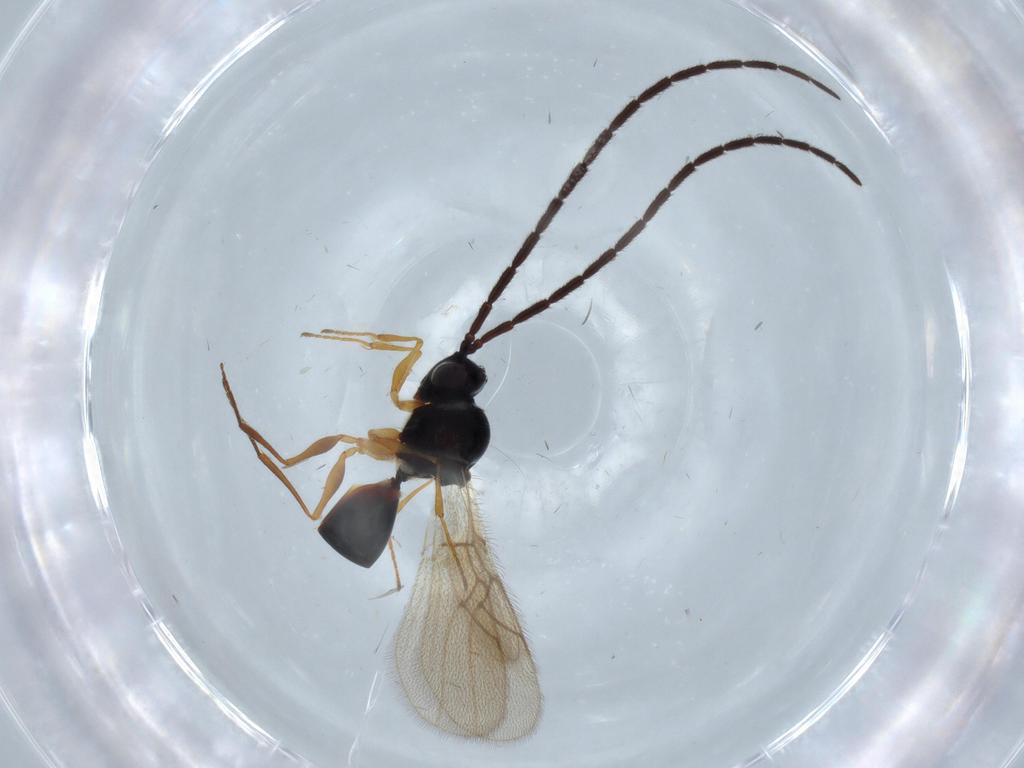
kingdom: Animalia
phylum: Arthropoda
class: Insecta
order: Hymenoptera
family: Figitidae
